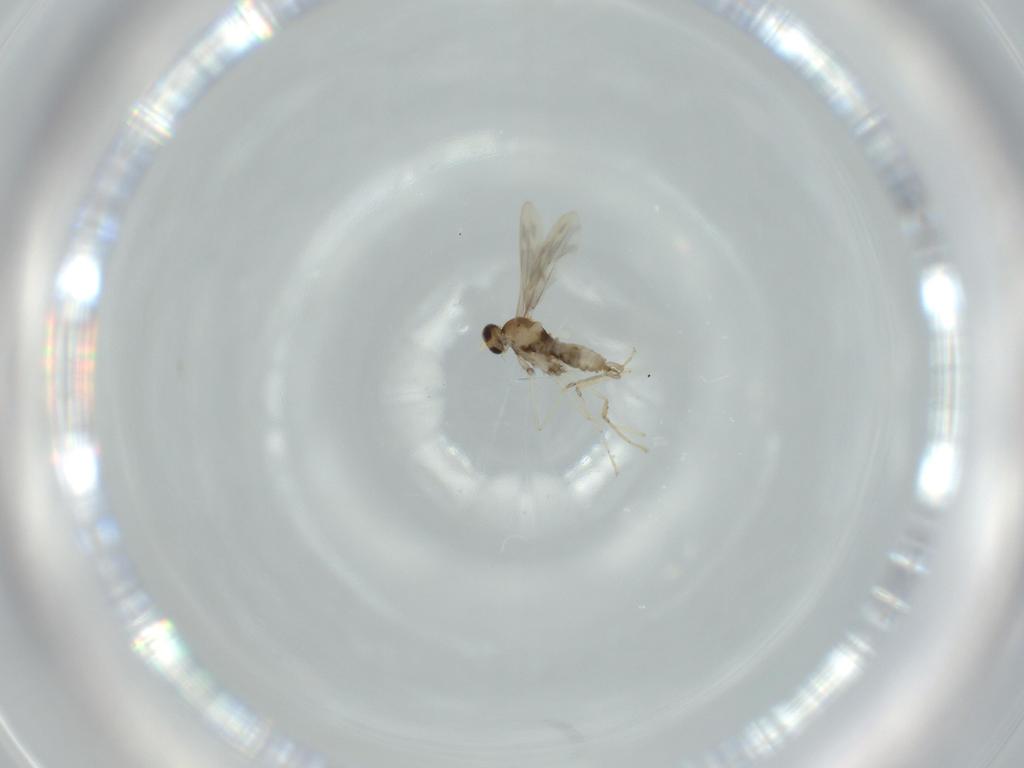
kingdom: Animalia
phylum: Arthropoda
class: Insecta
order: Diptera
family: Cecidomyiidae
